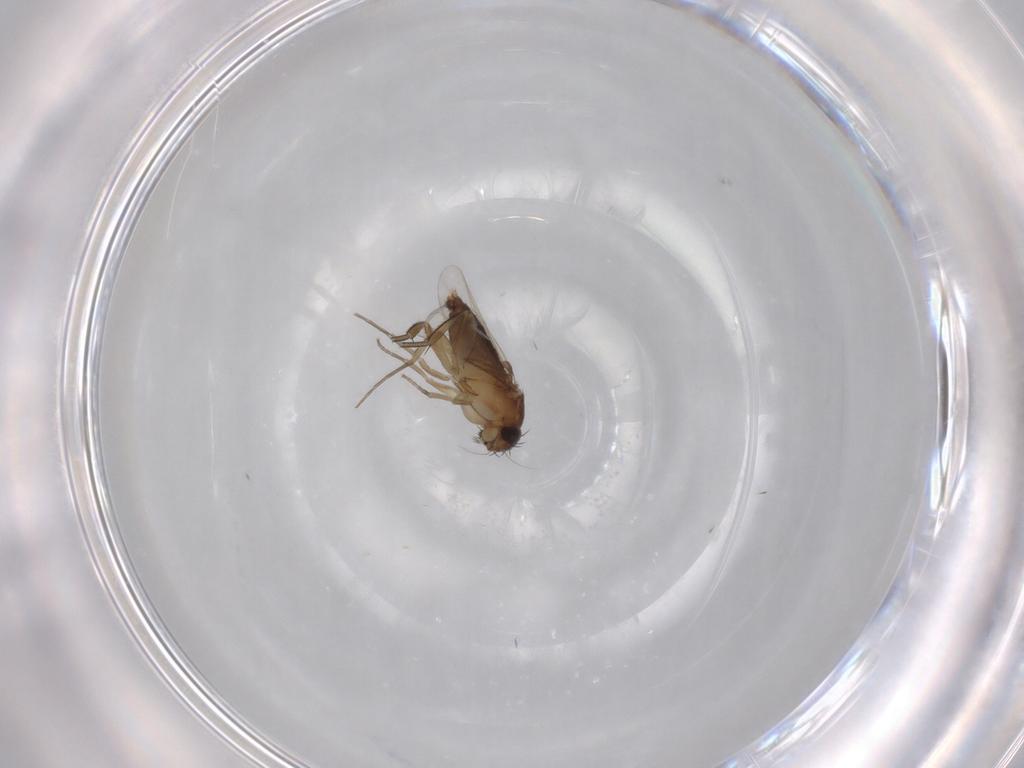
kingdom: Animalia
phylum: Arthropoda
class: Insecta
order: Diptera
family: Phoridae
